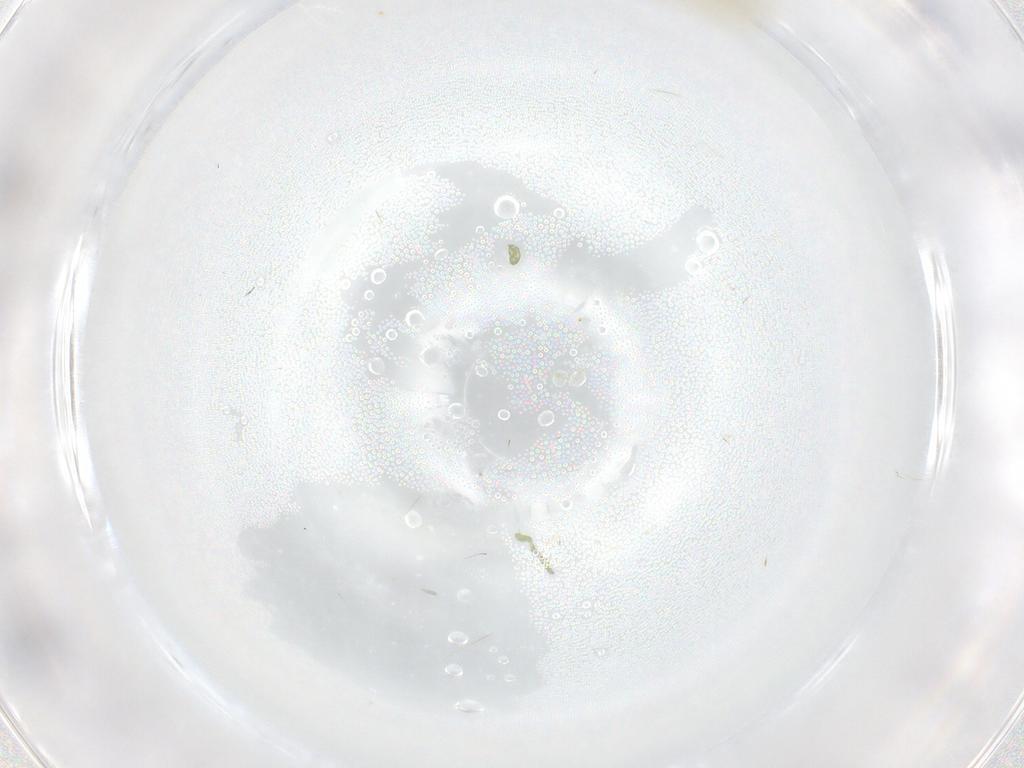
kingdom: Animalia
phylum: Arthropoda
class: Insecta
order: Diptera
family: Cecidomyiidae
